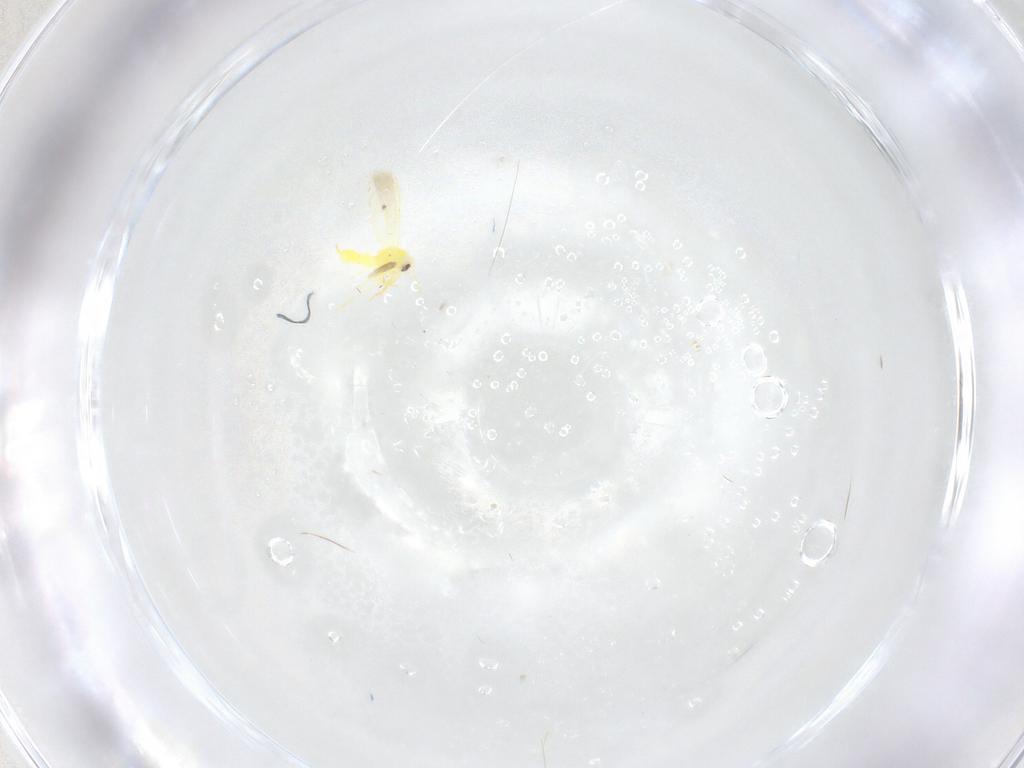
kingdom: Animalia
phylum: Arthropoda
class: Insecta
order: Hemiptera
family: Aleyrodidae
